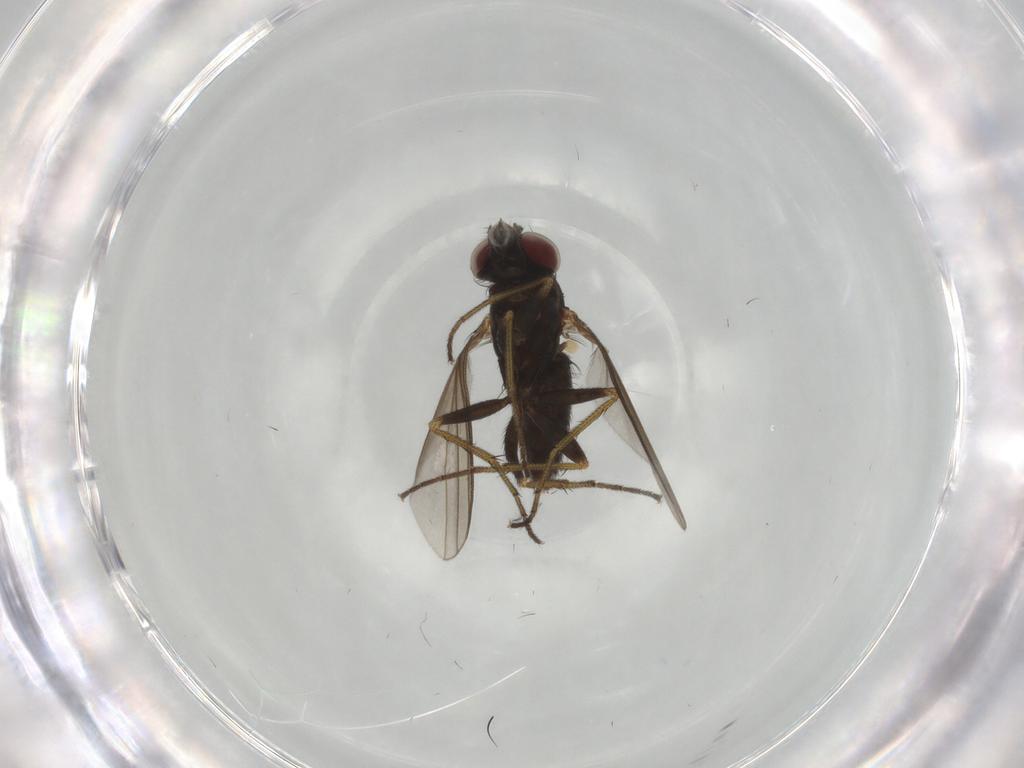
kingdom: Animalia
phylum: Arthropoda
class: Insecta
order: Diptera
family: Dolichopodidae
